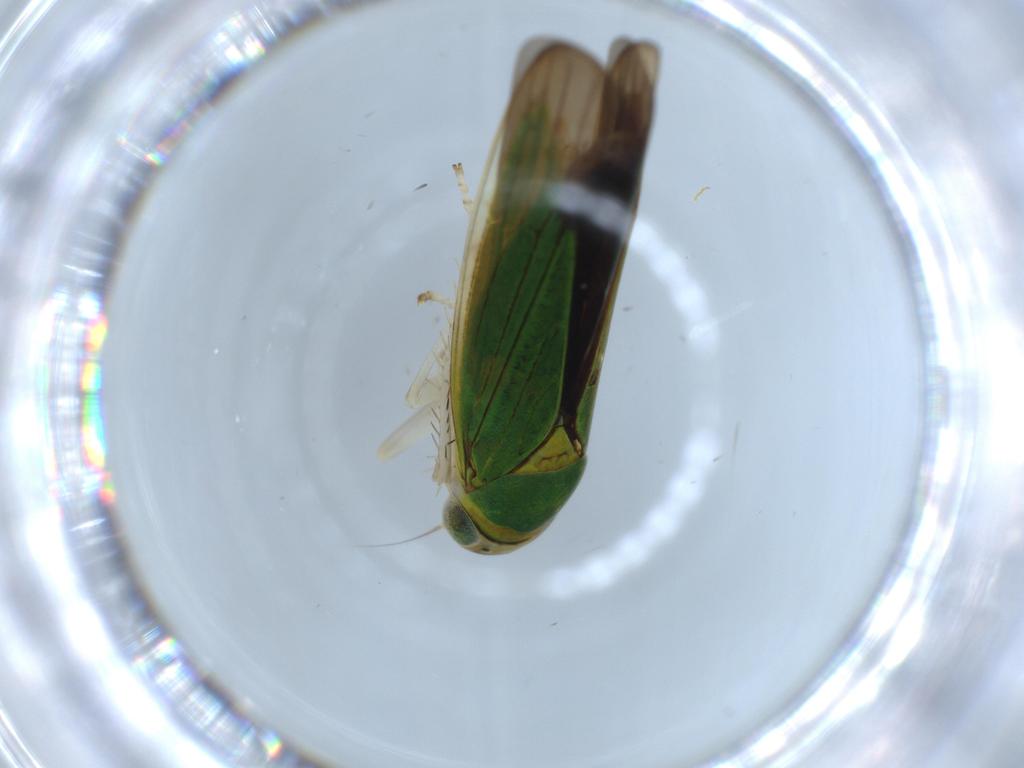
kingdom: Animalia
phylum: Arthropoda
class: Insecta
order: Hemiptera
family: Cicadellidae
